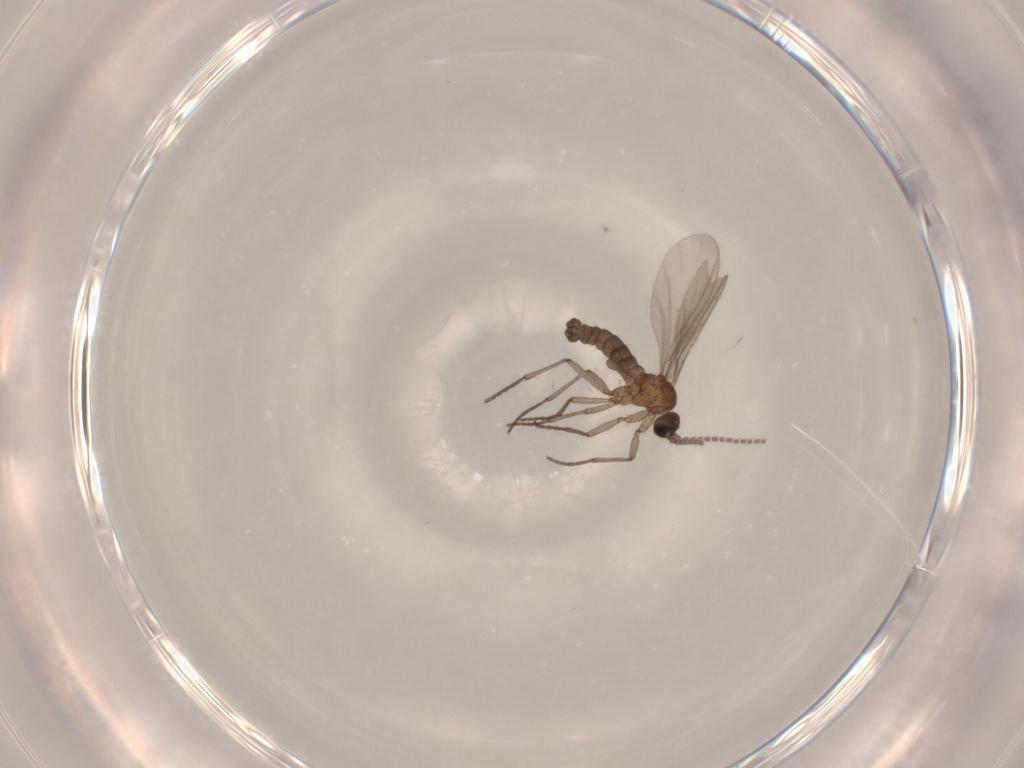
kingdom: Animalia
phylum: Arthropoda
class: Insecta
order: Diptera
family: Sciaridae
